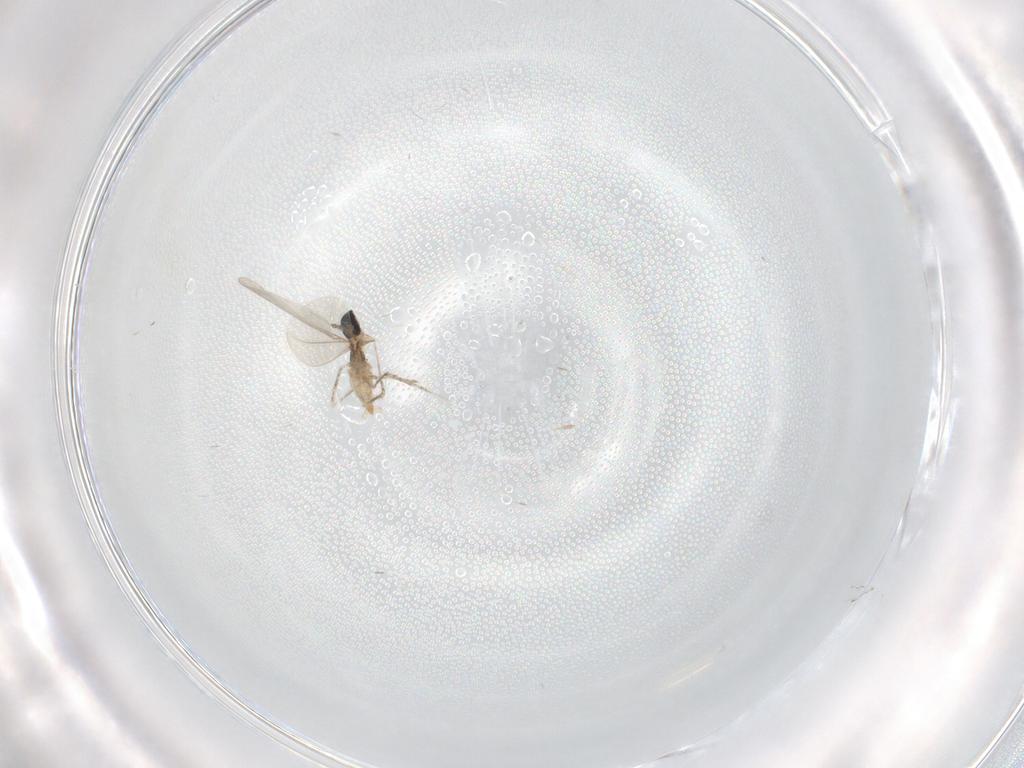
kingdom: Animalia
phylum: Arthropoda
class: Insecta
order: Diptera
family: Cecidomyiidae
